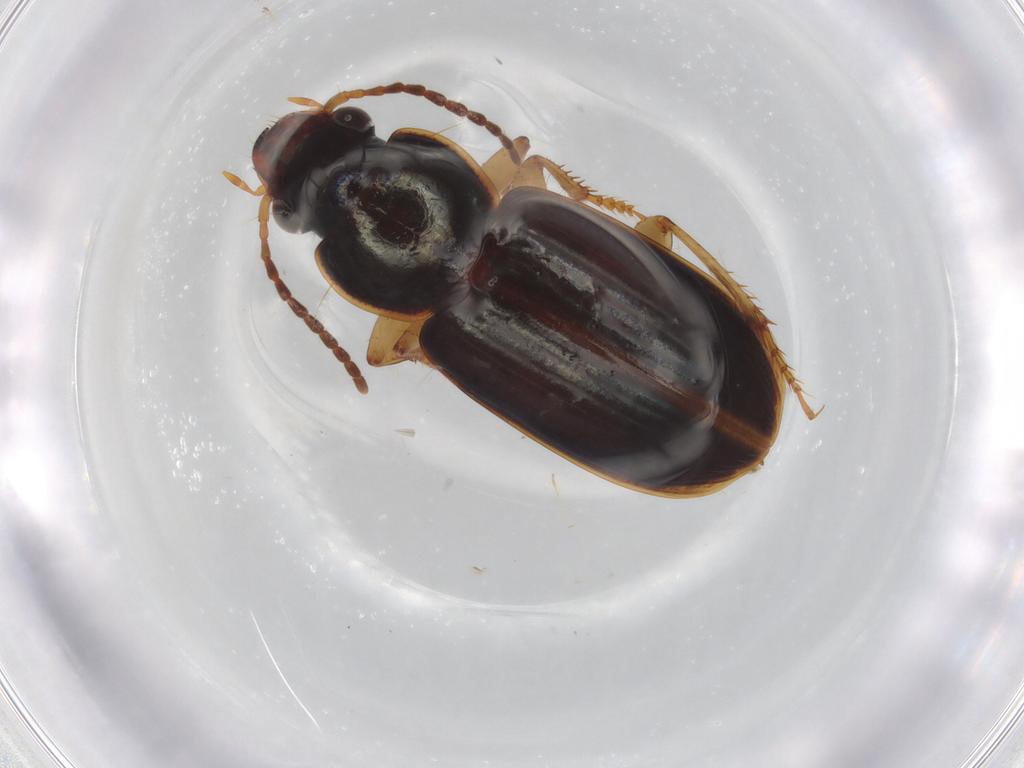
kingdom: Animalia
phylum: Arthropoda
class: Insecta
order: Coleoptera
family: Carabidae
